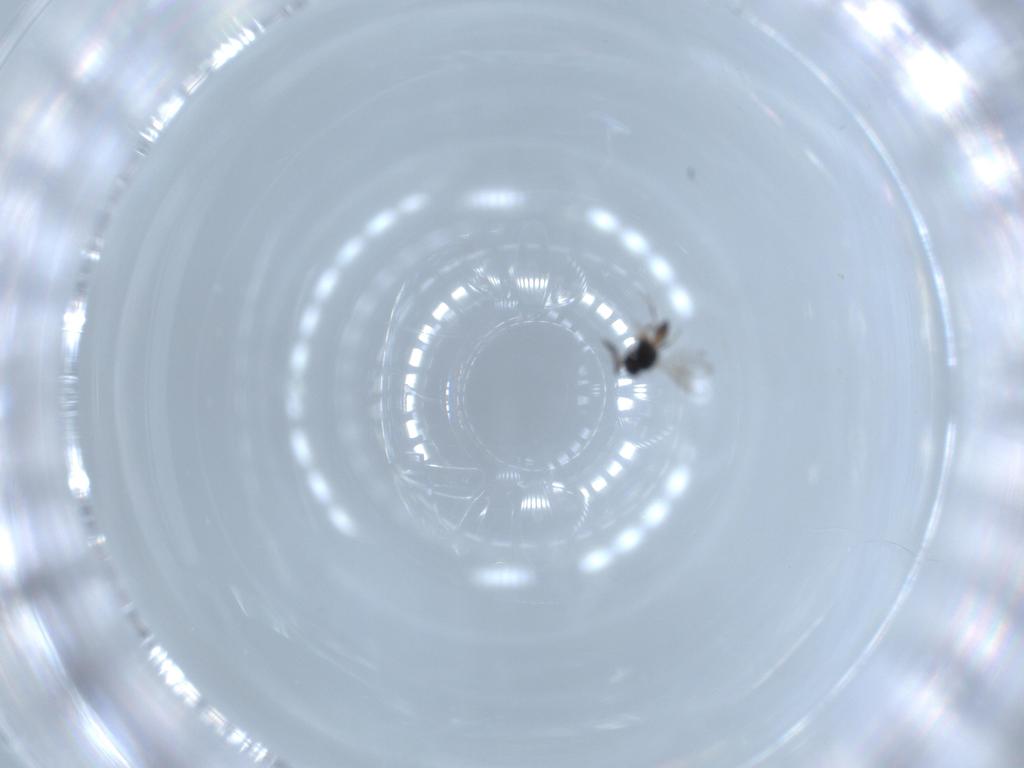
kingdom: Animalia
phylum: Arthropoda
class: Insecta
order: Hymenoptera
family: Scelionidae
